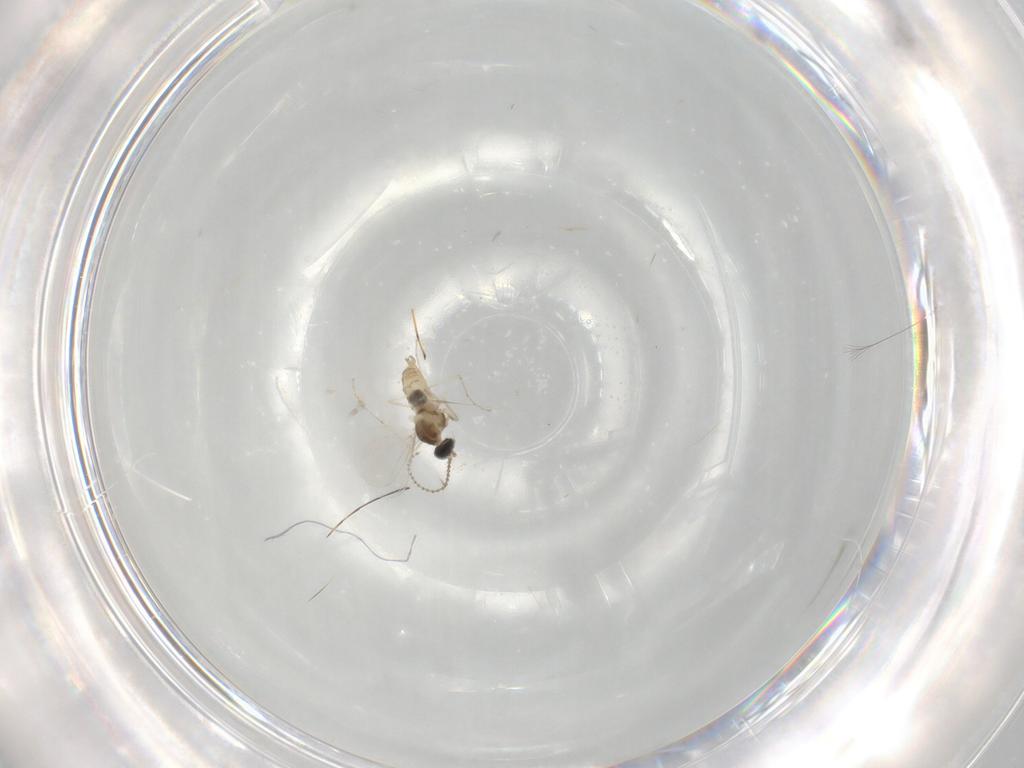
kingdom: Animalia
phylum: Arthropoda
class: Insecta
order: Diptera
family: Cecidomyiidae
